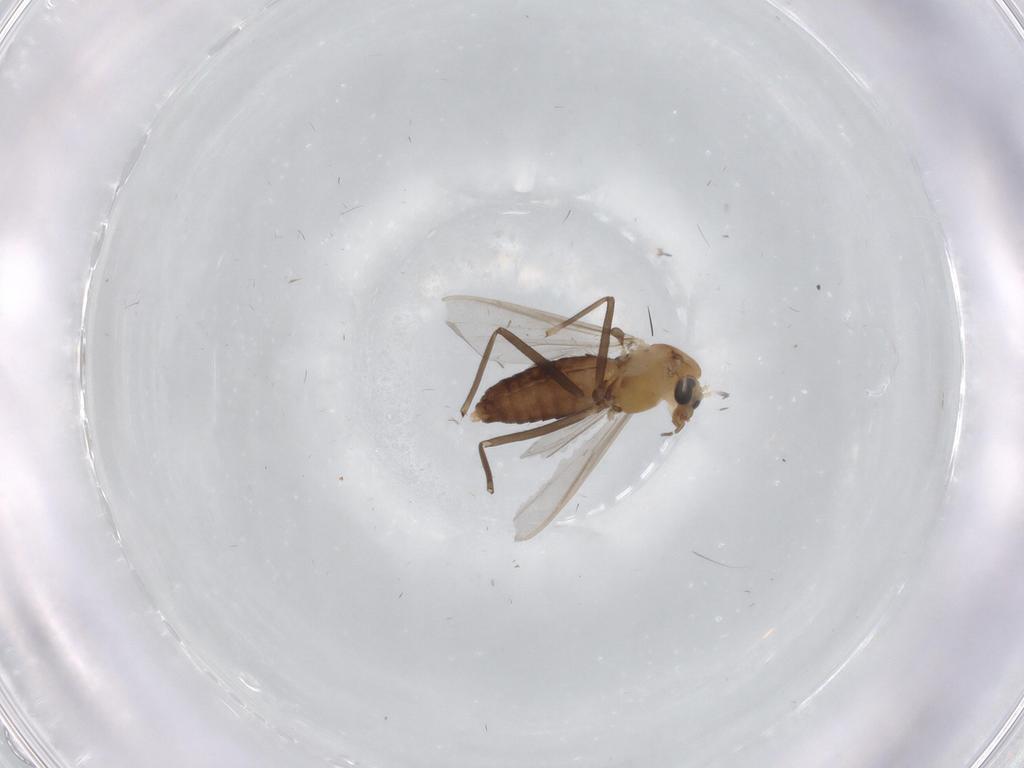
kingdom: Animalia
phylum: Arthropoda
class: Insecta
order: Diptera
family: Chironomidae
